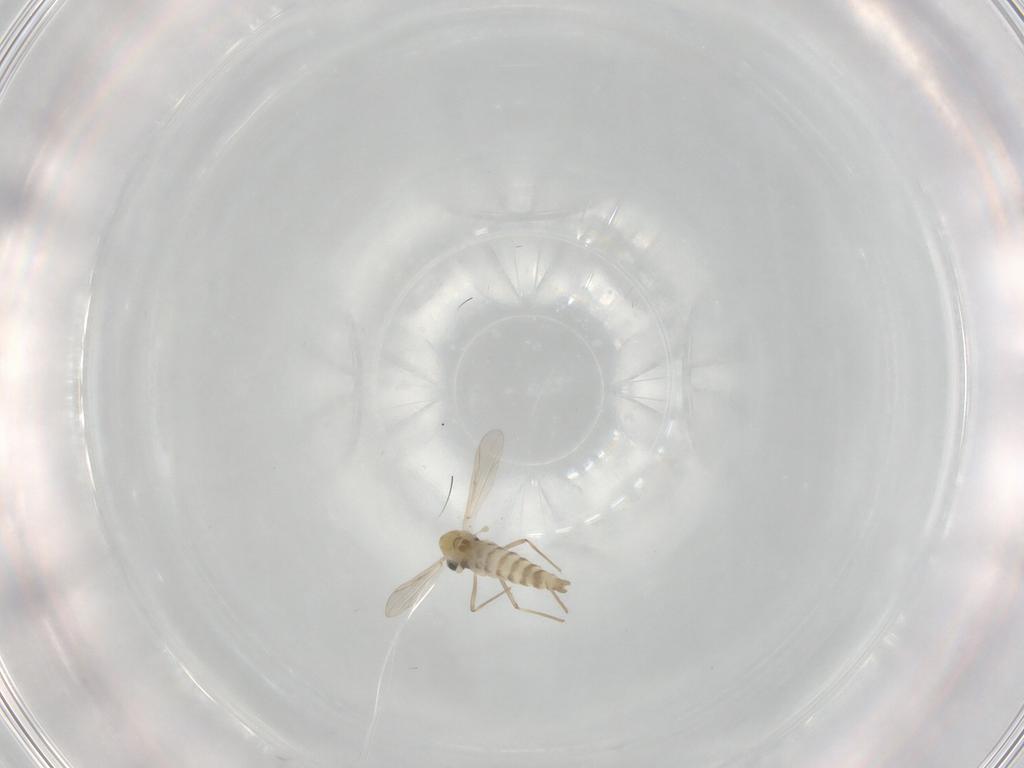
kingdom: Animalia
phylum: Arthropoda
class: Insecta
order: Diptera
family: Chironomidae
